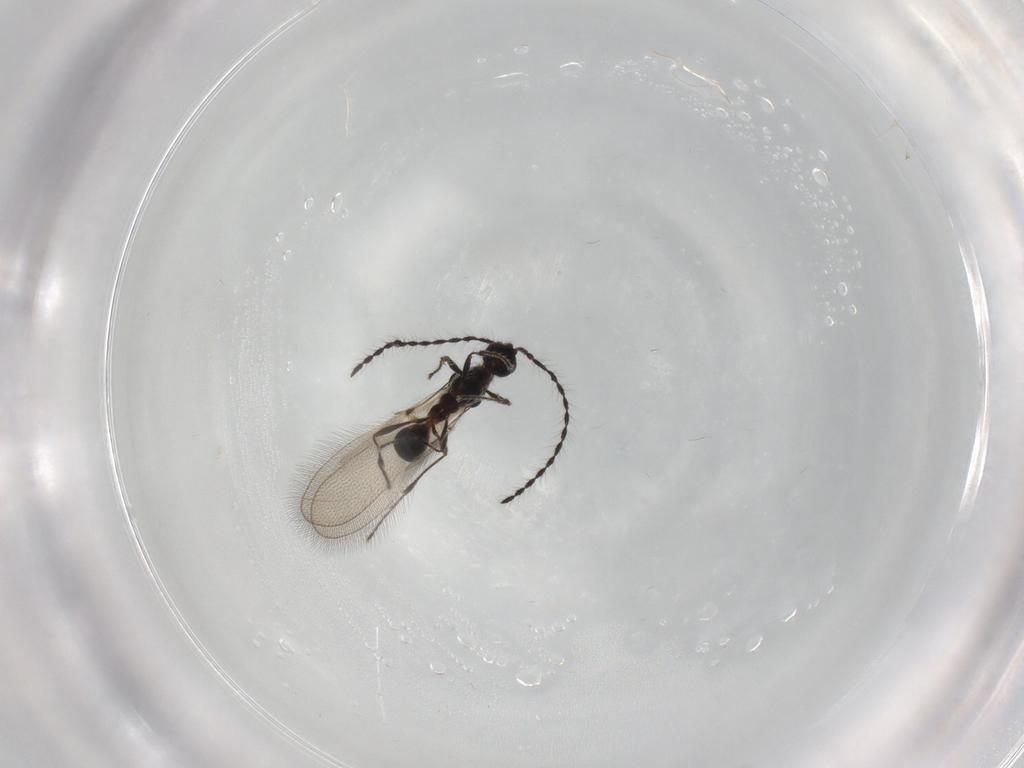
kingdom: Animalia
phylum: Arthropoda
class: Insecta
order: Hymenoptera
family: Diapriidae
